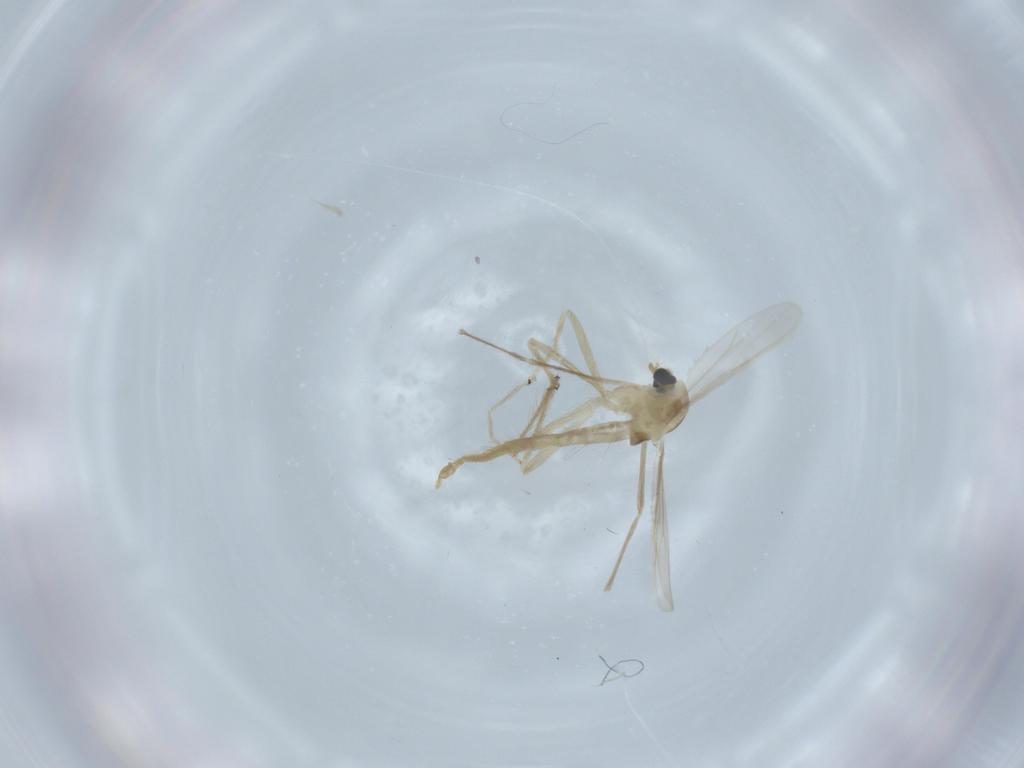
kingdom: Animalia
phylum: Arthropoda
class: Insecta
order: Diptera
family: Chironomidae
